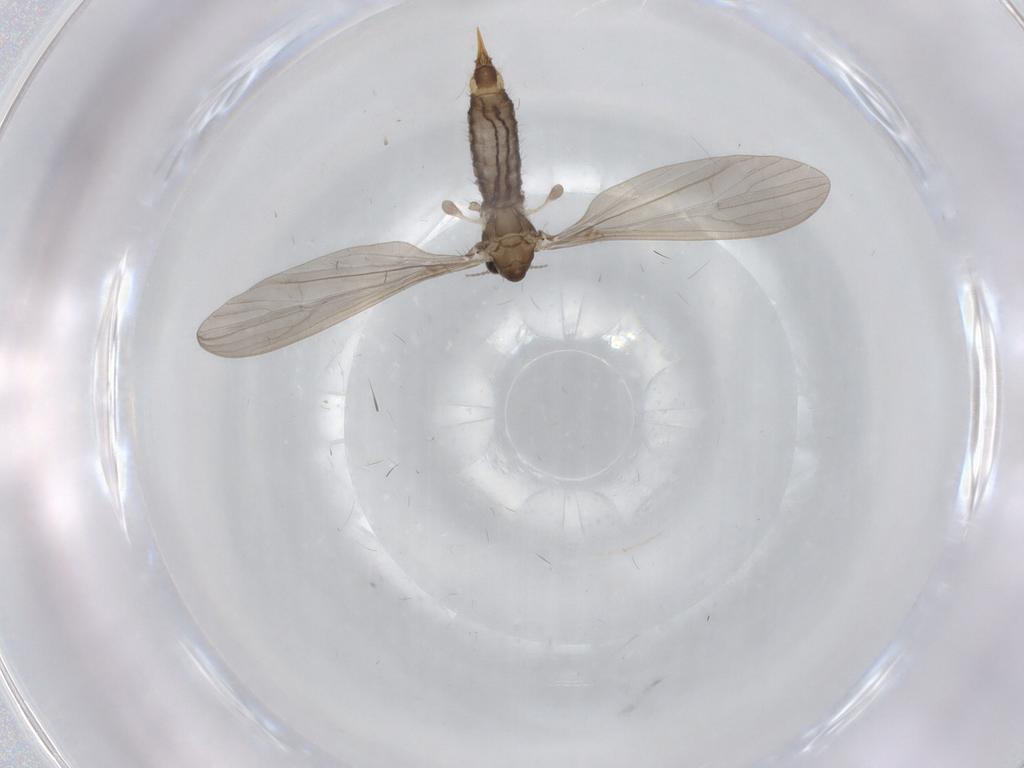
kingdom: Animalia
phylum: Arthropoda
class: Insecta
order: Diptera
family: Limoniidae
